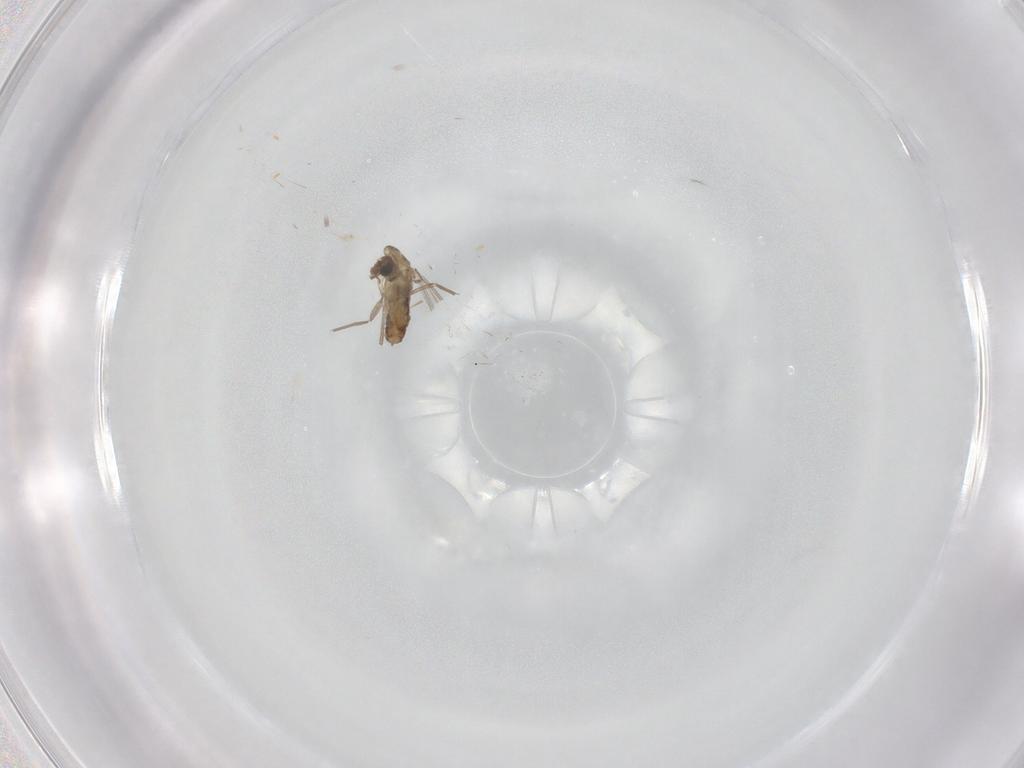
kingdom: Animalia
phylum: Arthropoda
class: Insecta
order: Diptera
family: Chironomidae
